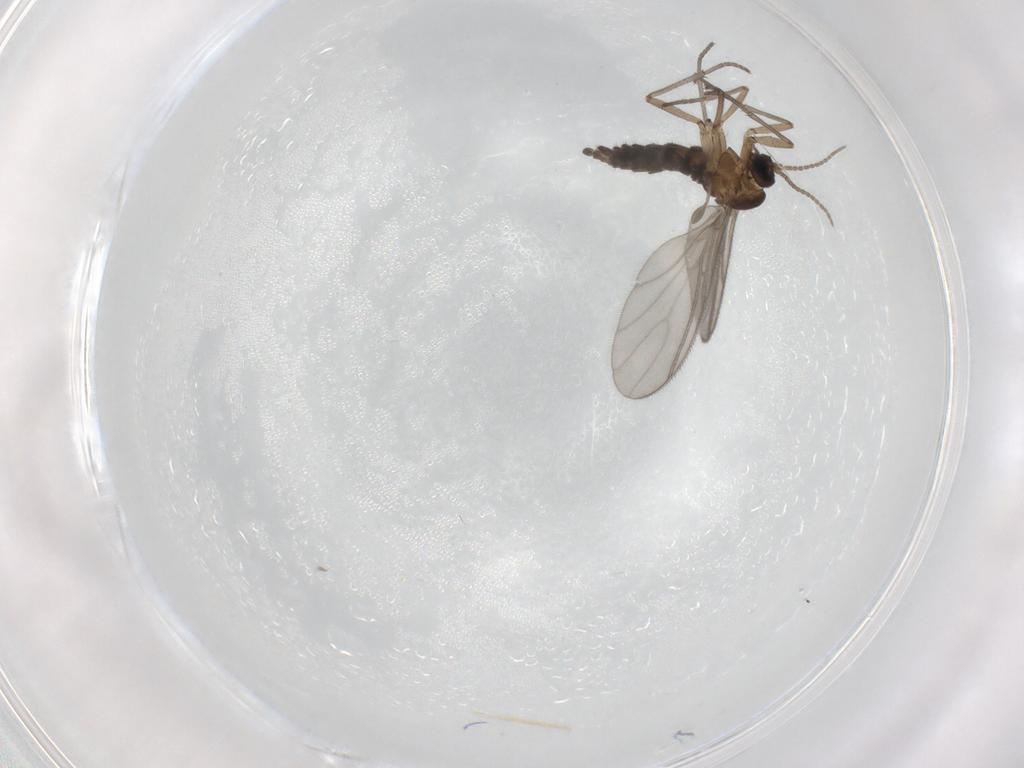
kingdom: Animalia
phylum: Arthropoda
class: Insecta
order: Diptera
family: Sciaridae
